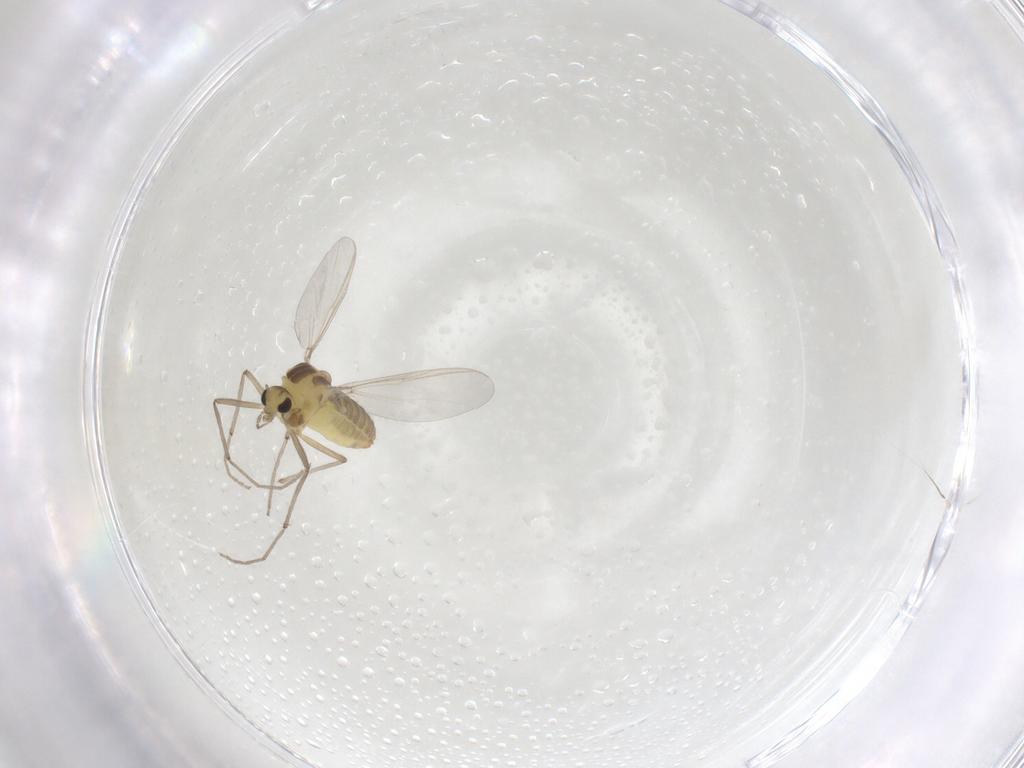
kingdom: Animalia
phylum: Arthropoda
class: Insecta
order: Diptera
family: Chironomidae
